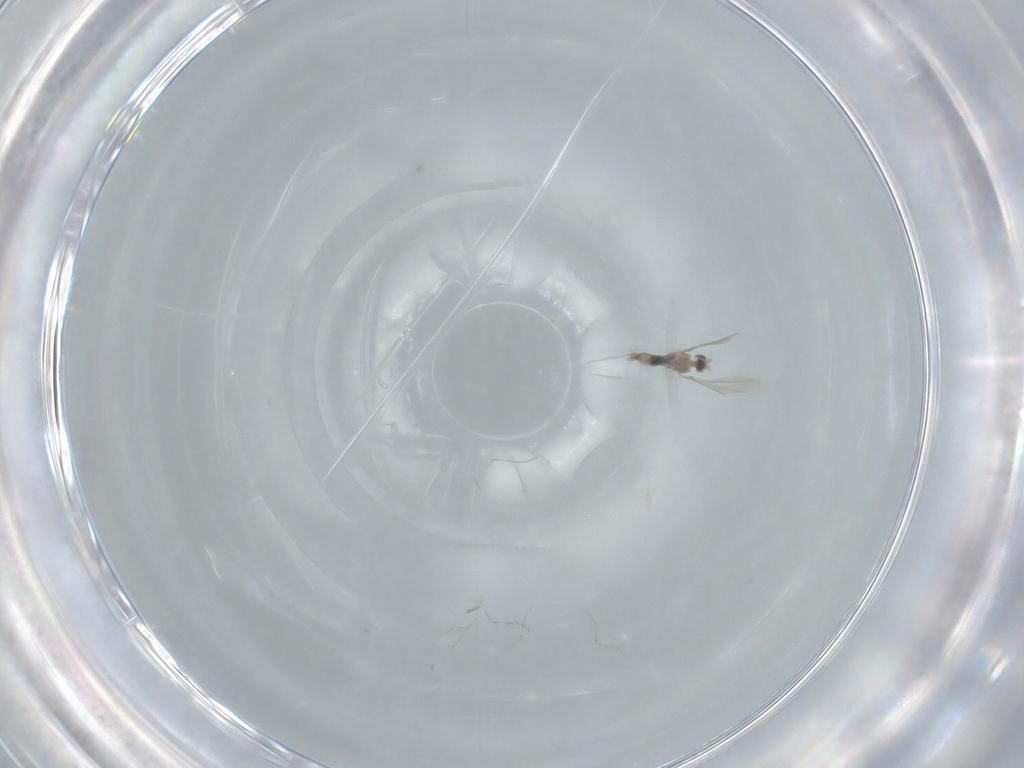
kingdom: Animalia
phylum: Arthropoda
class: Insecta
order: Diptera
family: Cecidomyiidae
